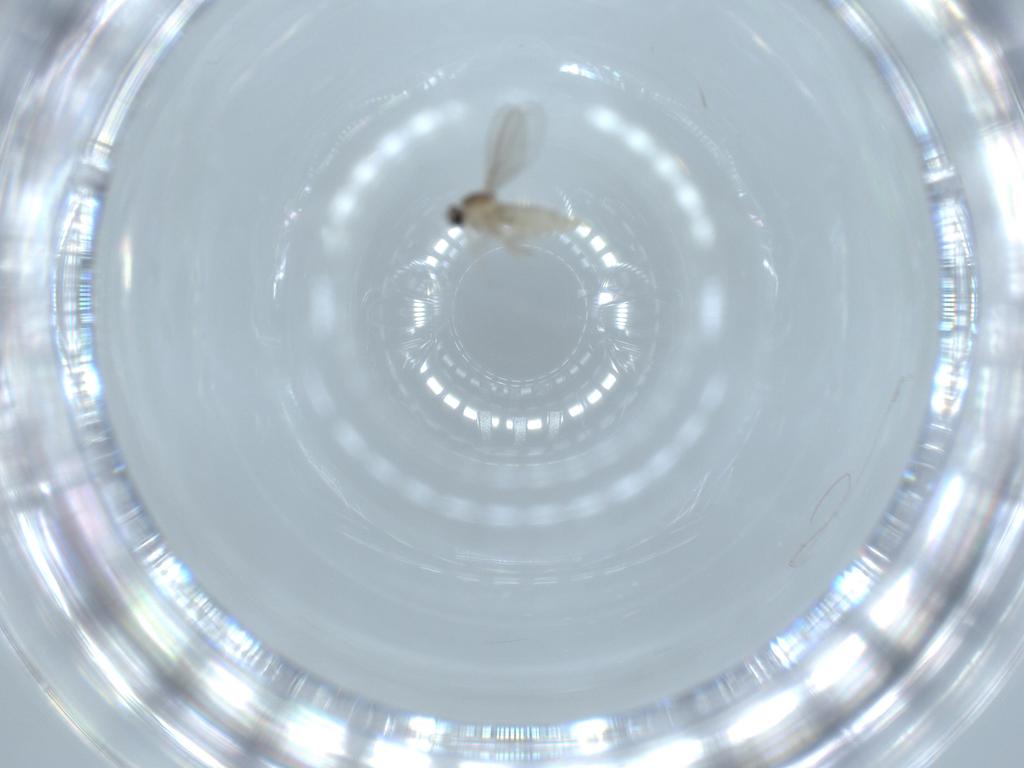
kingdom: Animalia
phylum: Arthropoda
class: Insecta
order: Diptera
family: Cecidomyiidae
